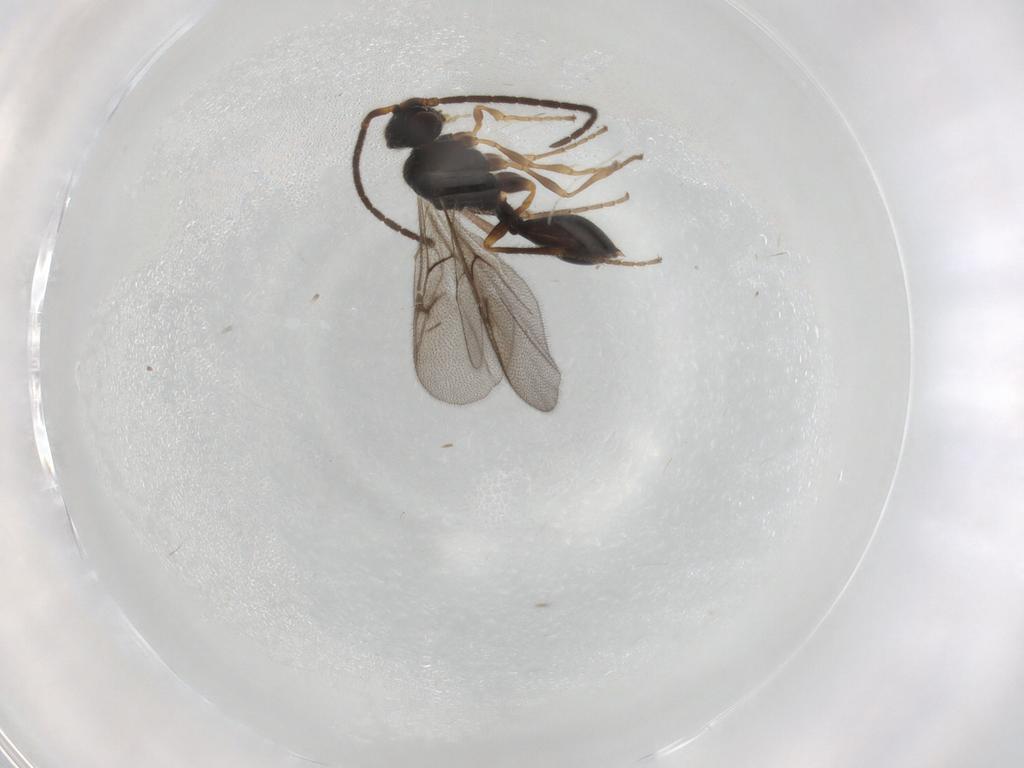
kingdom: Animalia
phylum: Arthropoda
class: Insecta
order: Hymenoptera
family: Diapriidae
